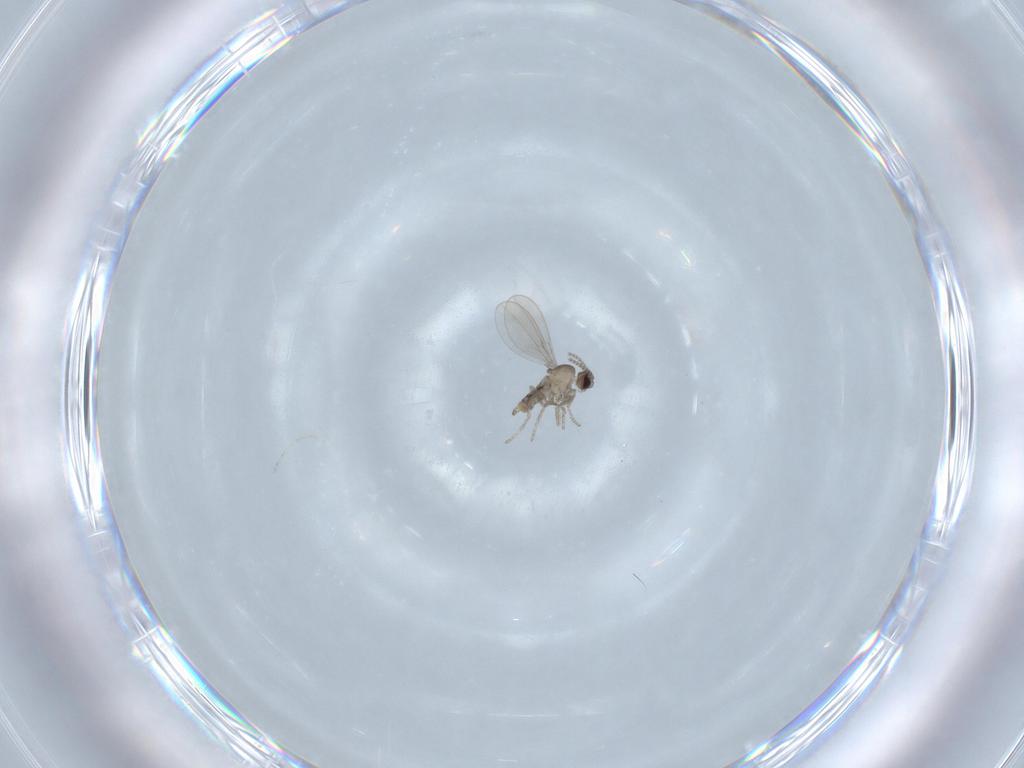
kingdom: Animalia
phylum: Arthropoda
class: Insecta
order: Diptera
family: Cecidomyiidae
